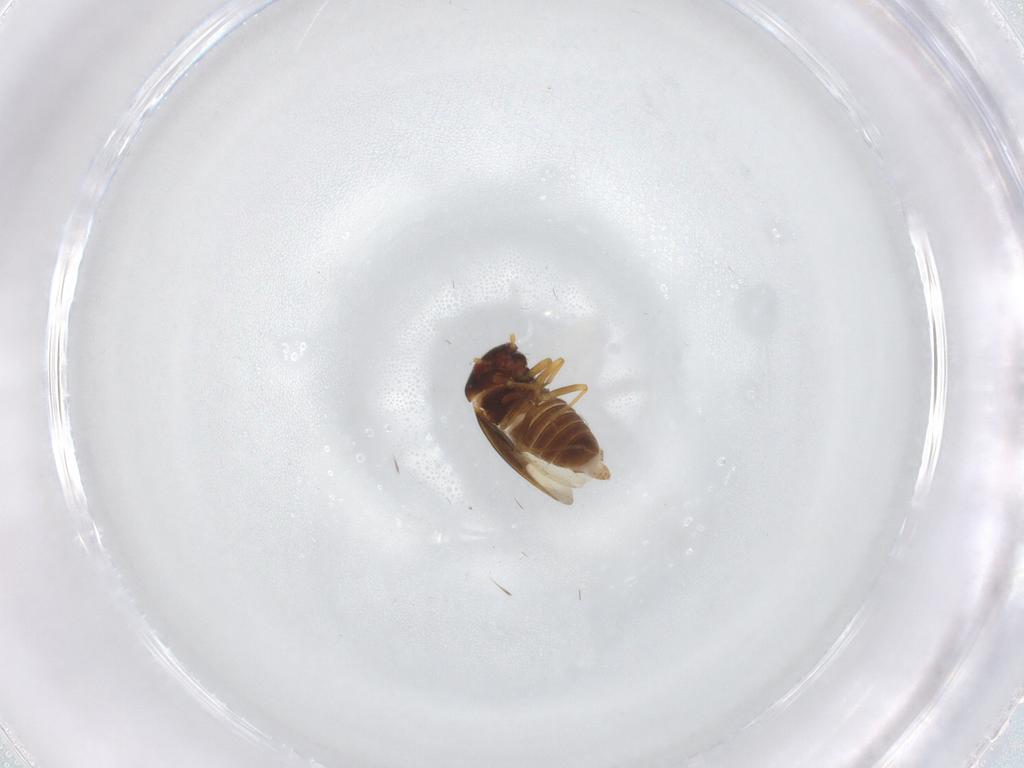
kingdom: Animalia
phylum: Arthropoda
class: Insecta
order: Hemiptera
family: Schizopteridae
